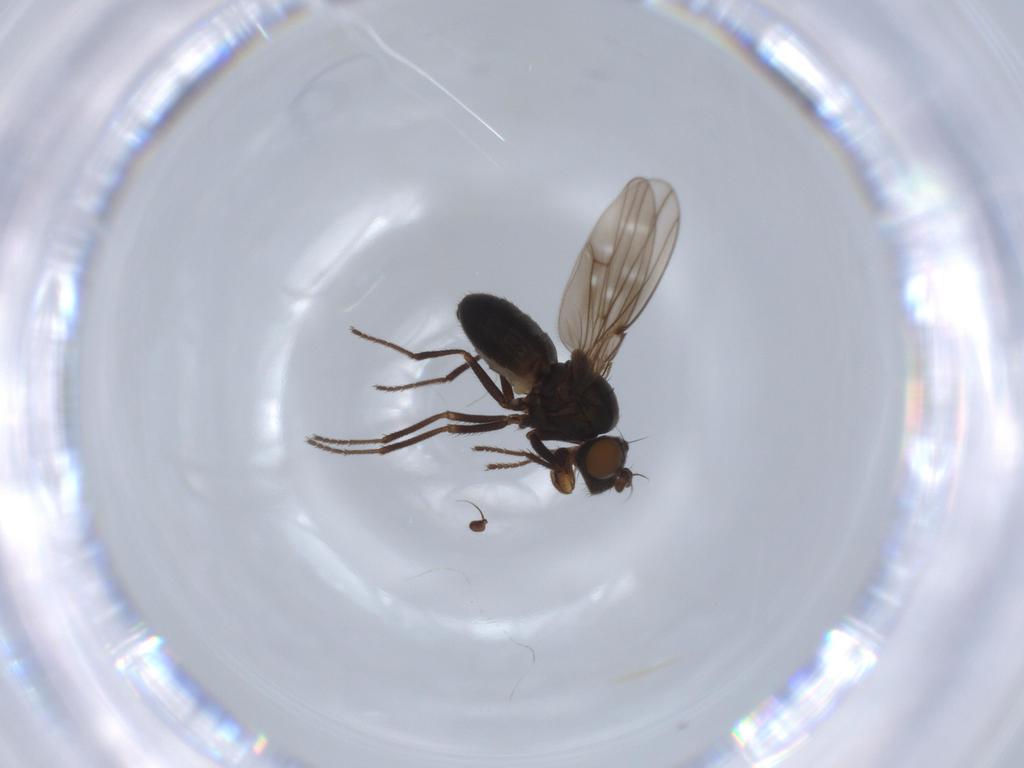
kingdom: Animalia
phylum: Arthropoda
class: Insecta
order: Diptera
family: Ephydridae
